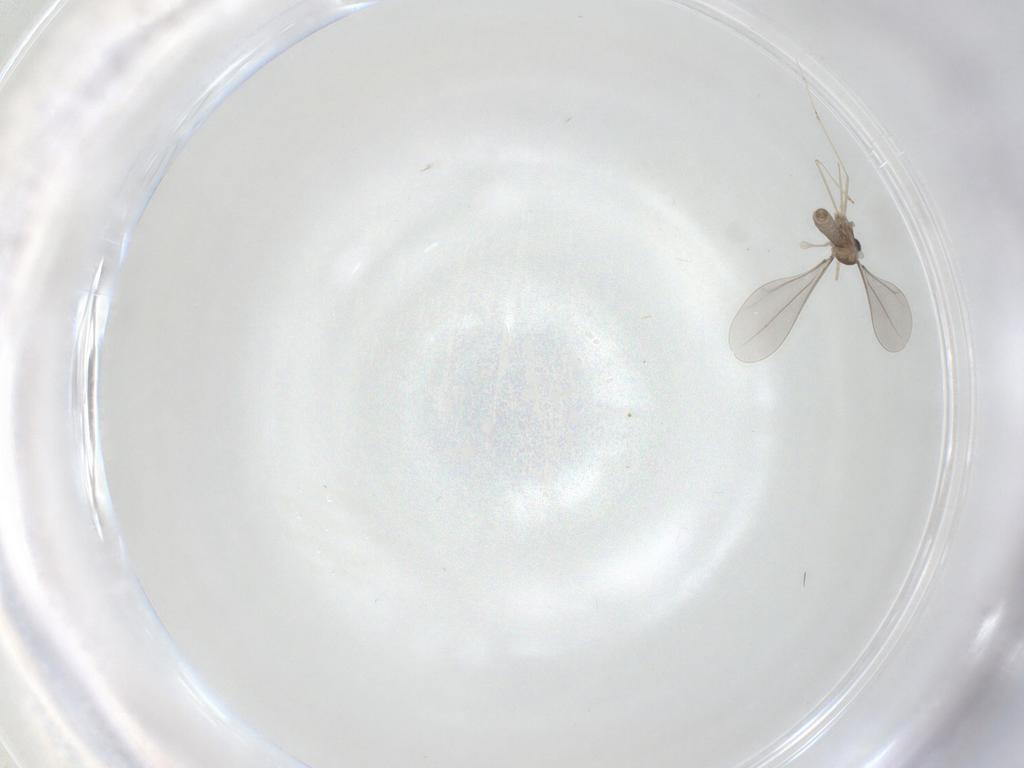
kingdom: Animalia
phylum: Arthropoda
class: Insecta
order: Diptera
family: Cecidomyiidae
